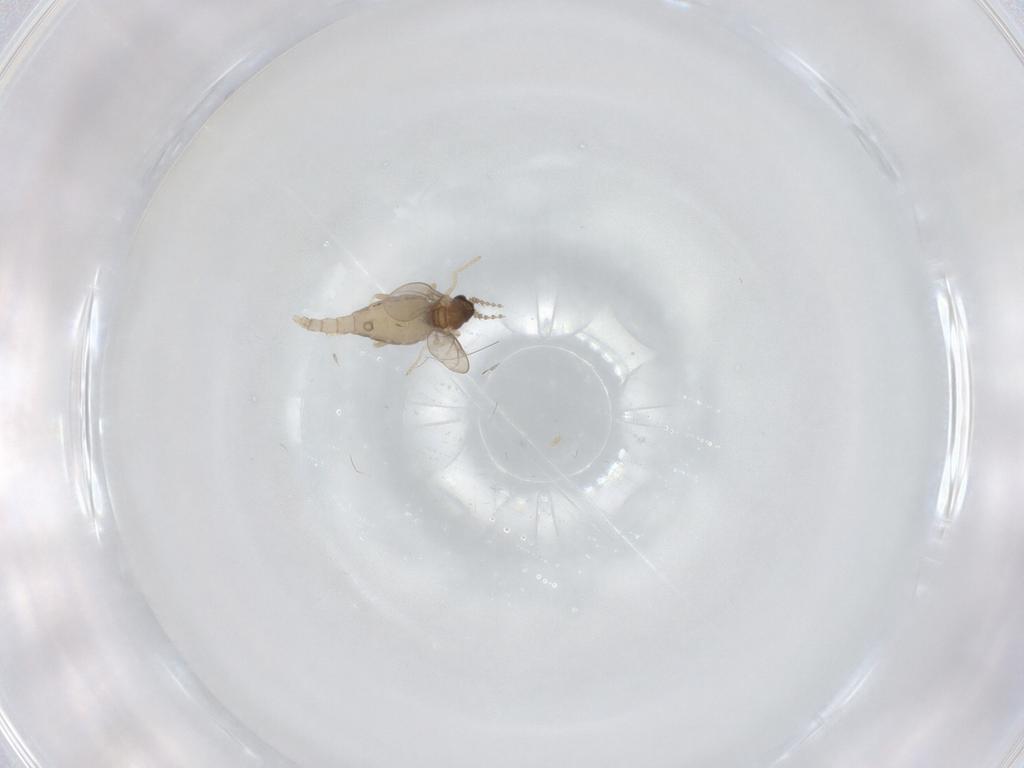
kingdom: Animalia
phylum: Arthropoda
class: Insecta
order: Diptera
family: Cecidomyiidae
